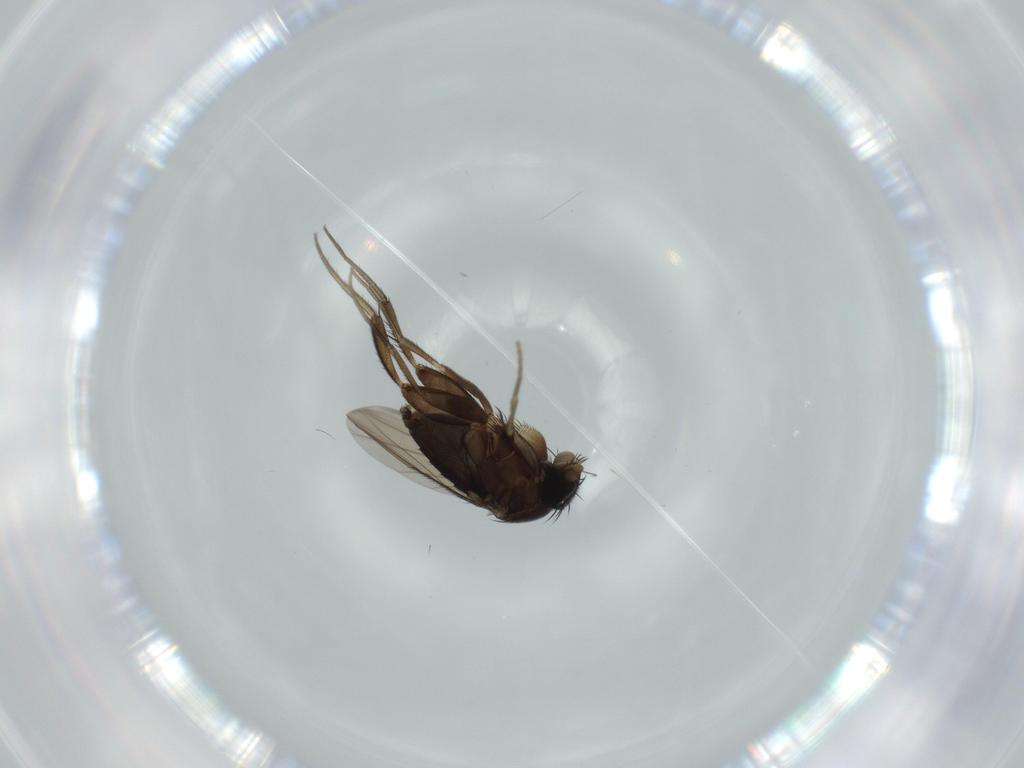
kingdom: Animalia
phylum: Arthropoda
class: Insecta
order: Diptera
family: Phoridae
